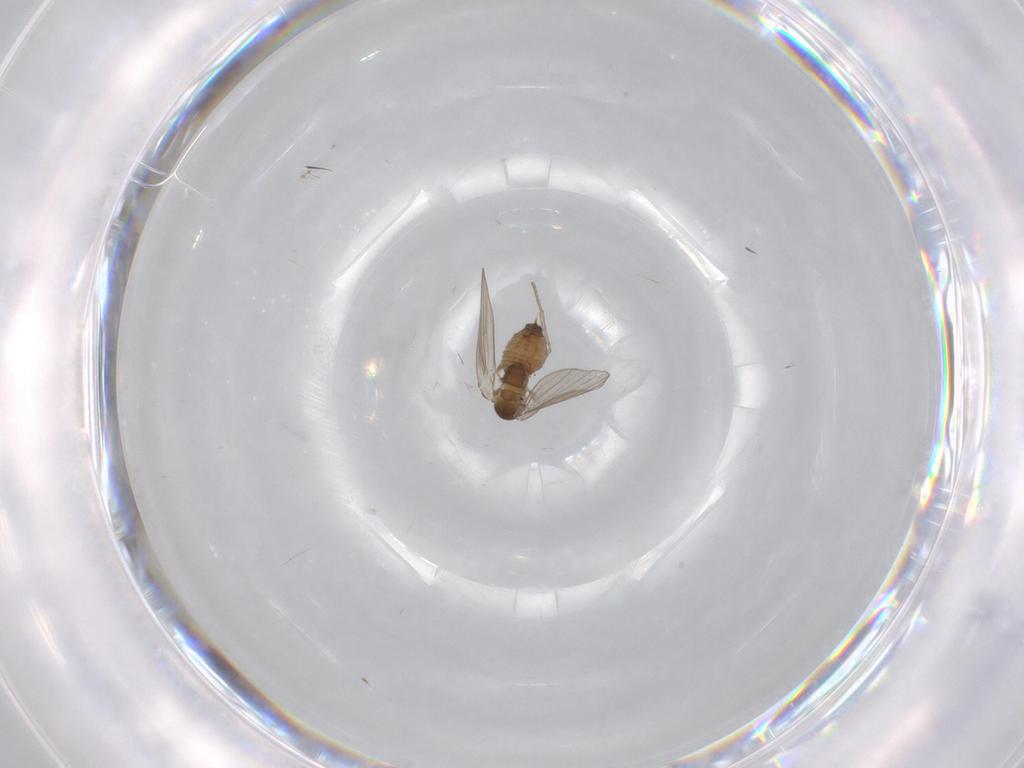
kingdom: Animalia
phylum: Arthropoda
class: Insecta
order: Diptera
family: Psychodidae
